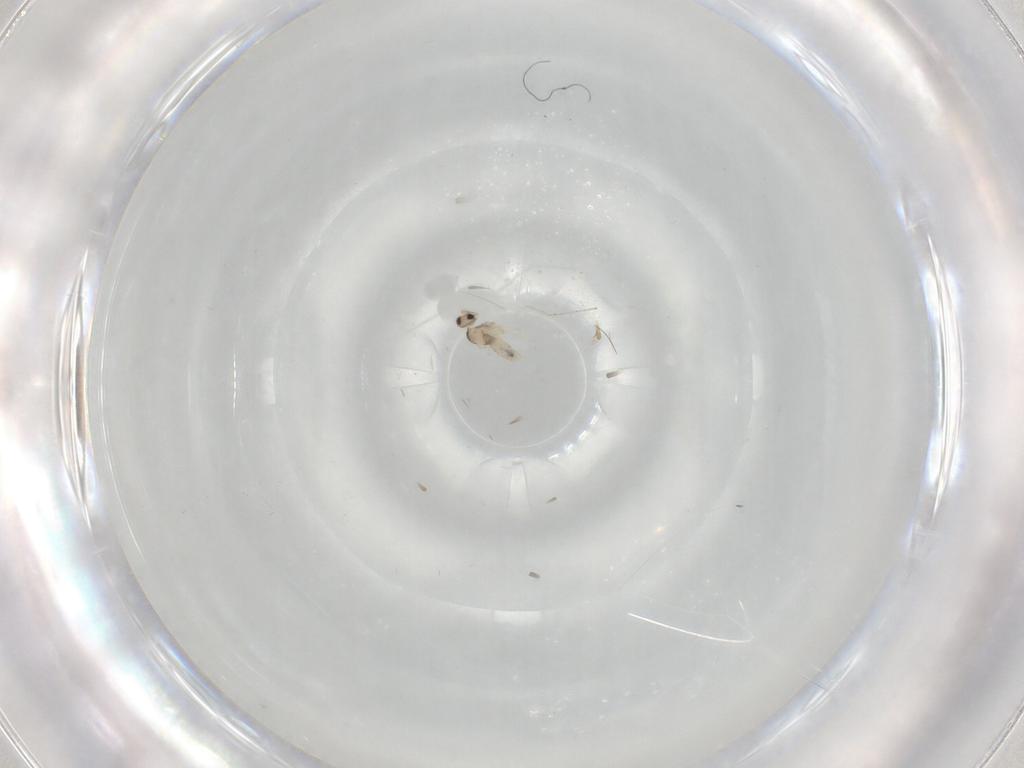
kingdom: Animalia
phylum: Arthropoda
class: Insecta
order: Diptera
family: Cecidomyiidae
